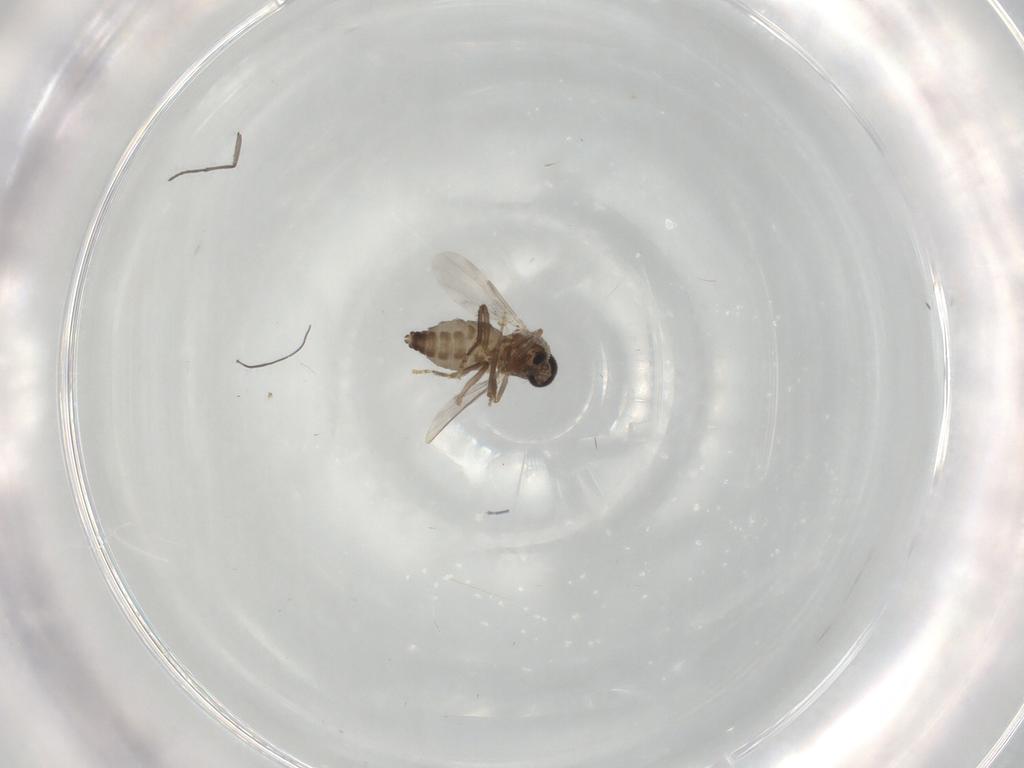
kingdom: Animalia
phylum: Arthropoda
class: Insecta
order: Diptera
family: Ceratopogonidae
